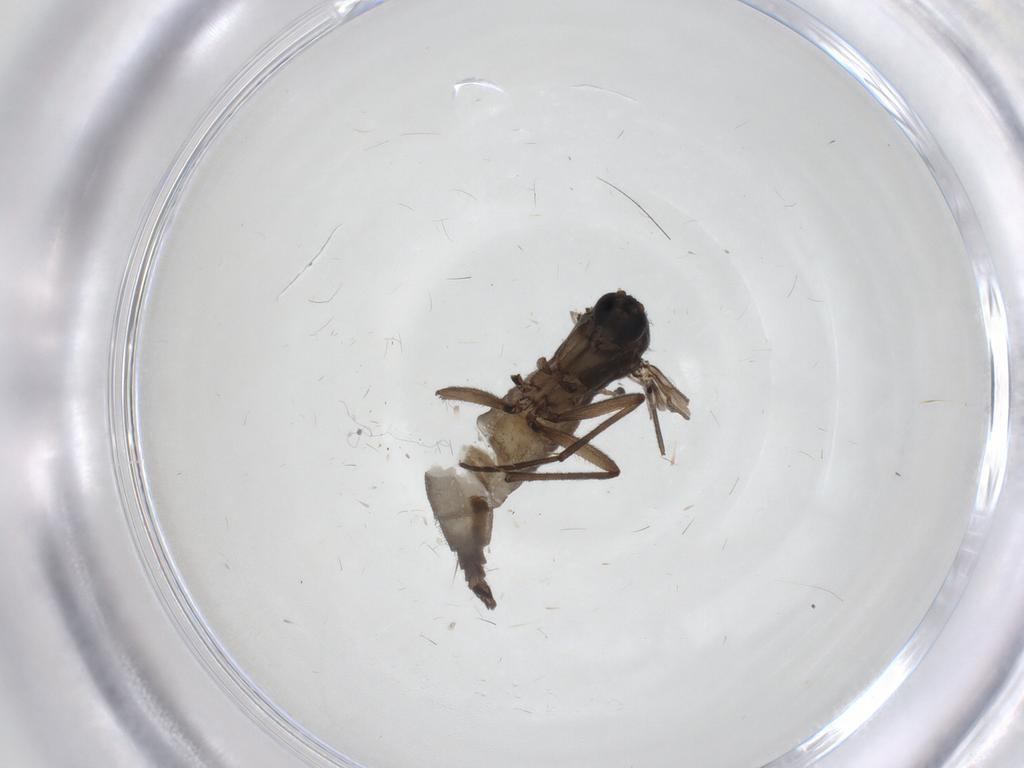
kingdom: Animalia
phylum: Arthropoda
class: Insecta
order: Diptera
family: Sciaridae
